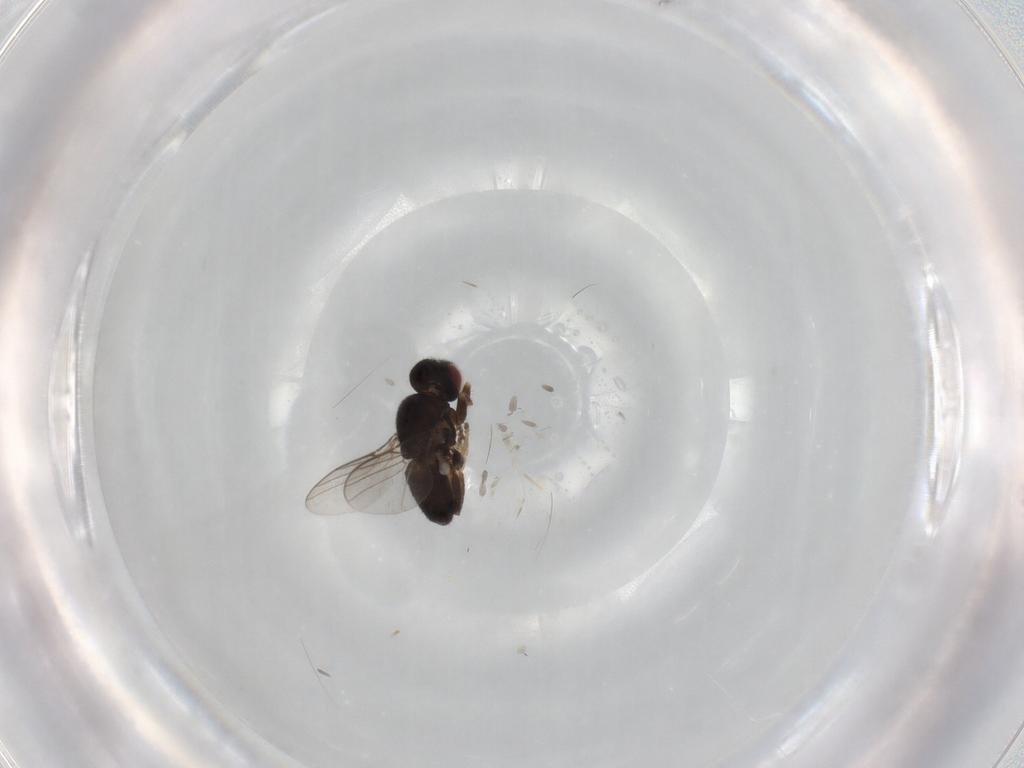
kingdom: Animalia
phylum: Arthropoda
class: Insecta
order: Diptera
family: Chloropidae
